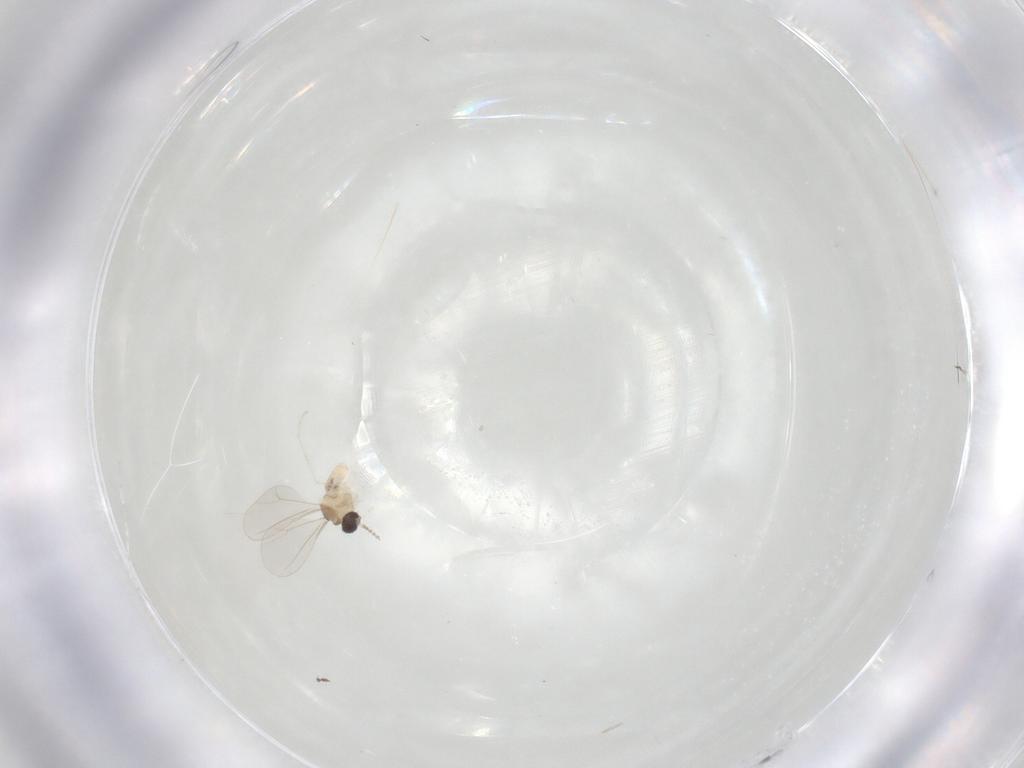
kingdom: Animalia
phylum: Arthropoda
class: Insecta
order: Diptera
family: Cecidomyiidae
